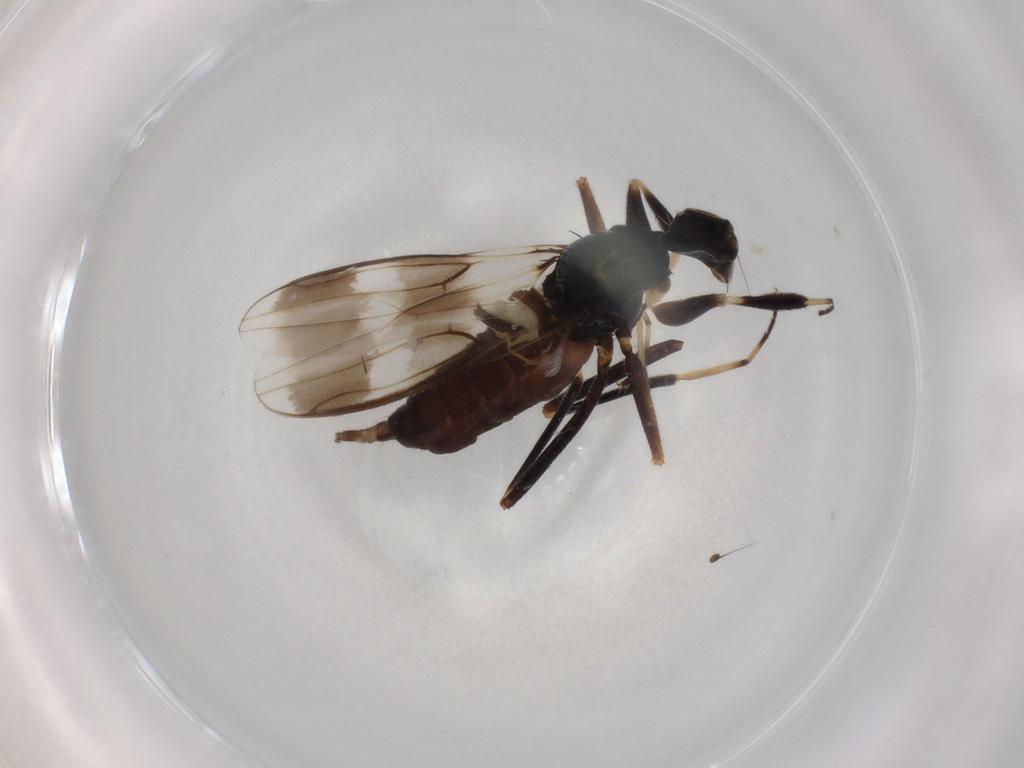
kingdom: Animalia
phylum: Arthropoda
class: Insecta
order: Diptera
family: Hybotidae
